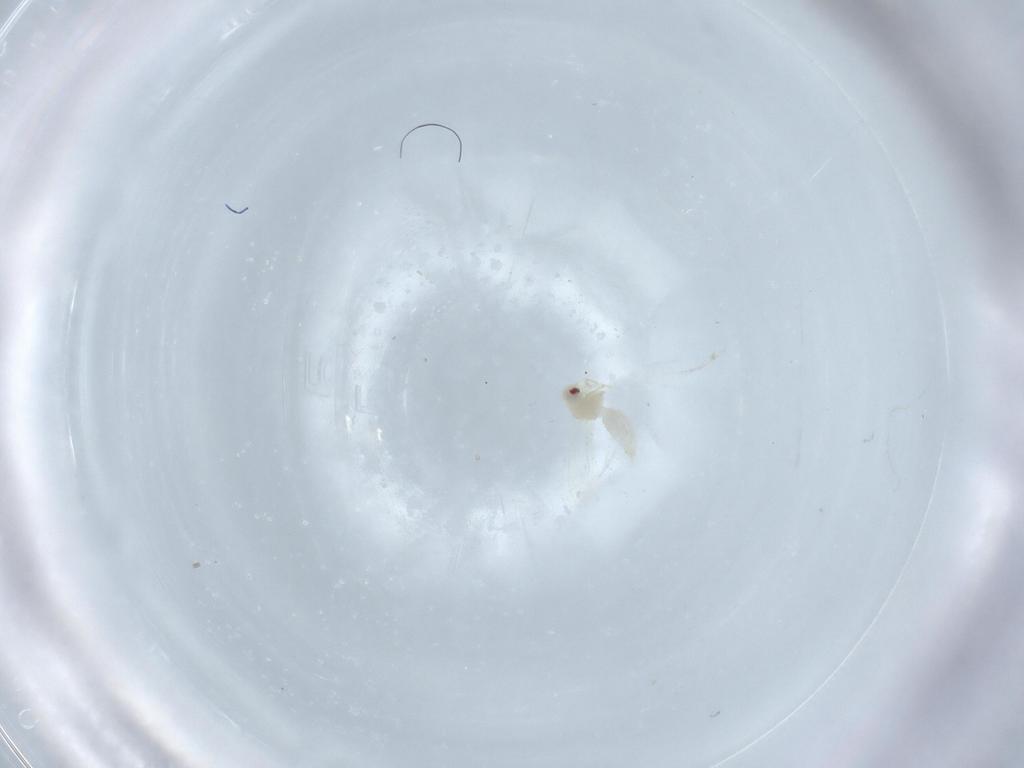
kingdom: Animalia
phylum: Arthropoda
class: Insecta
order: Hemiptera
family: Aleyrodidae
